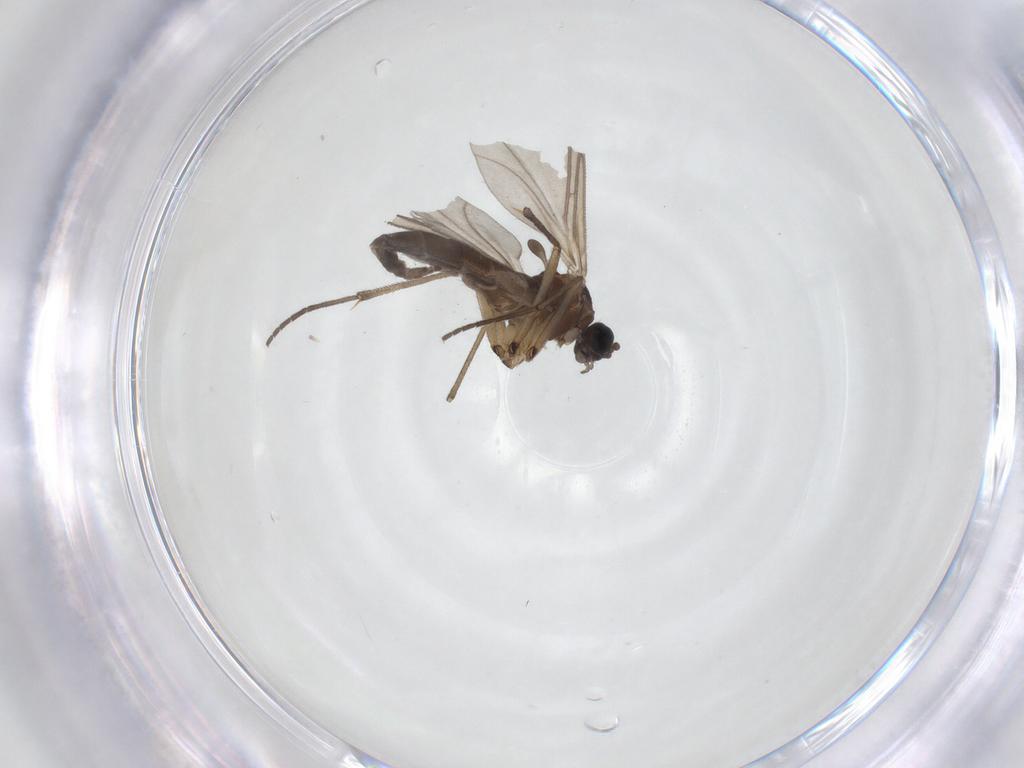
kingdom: Animalia
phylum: Arthropoda
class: Insecta
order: Diptera
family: Sciaridae
